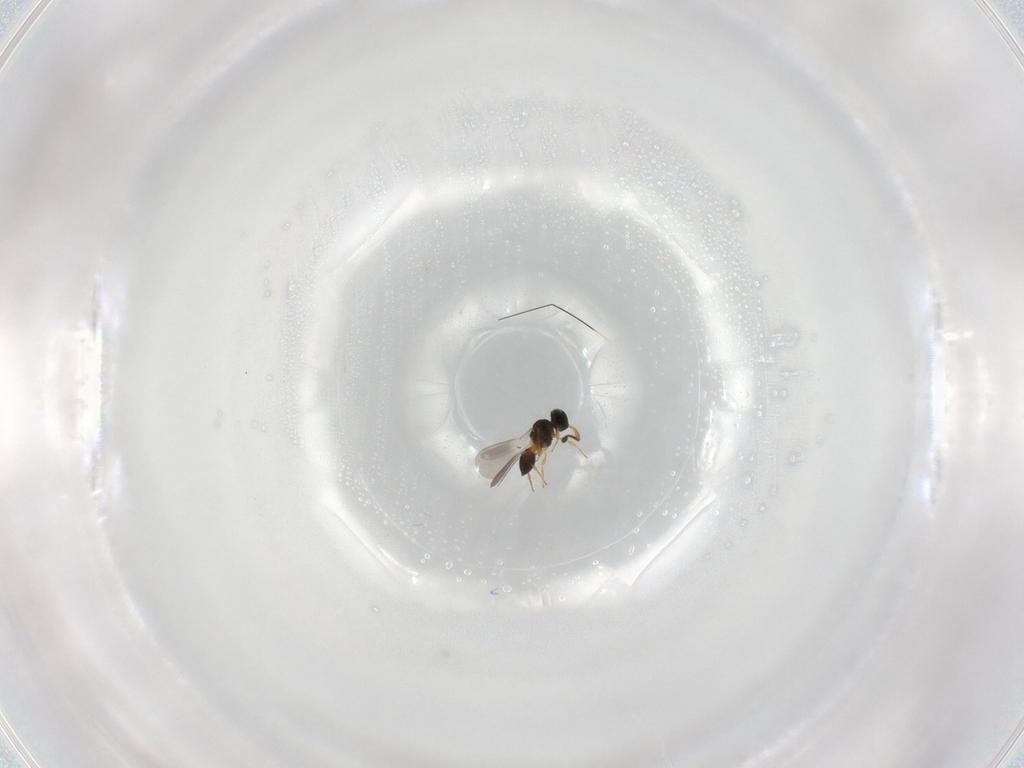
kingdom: Animalia
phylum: Arthropoda
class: Insecta
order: Hymenoptera
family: Platygastridae
